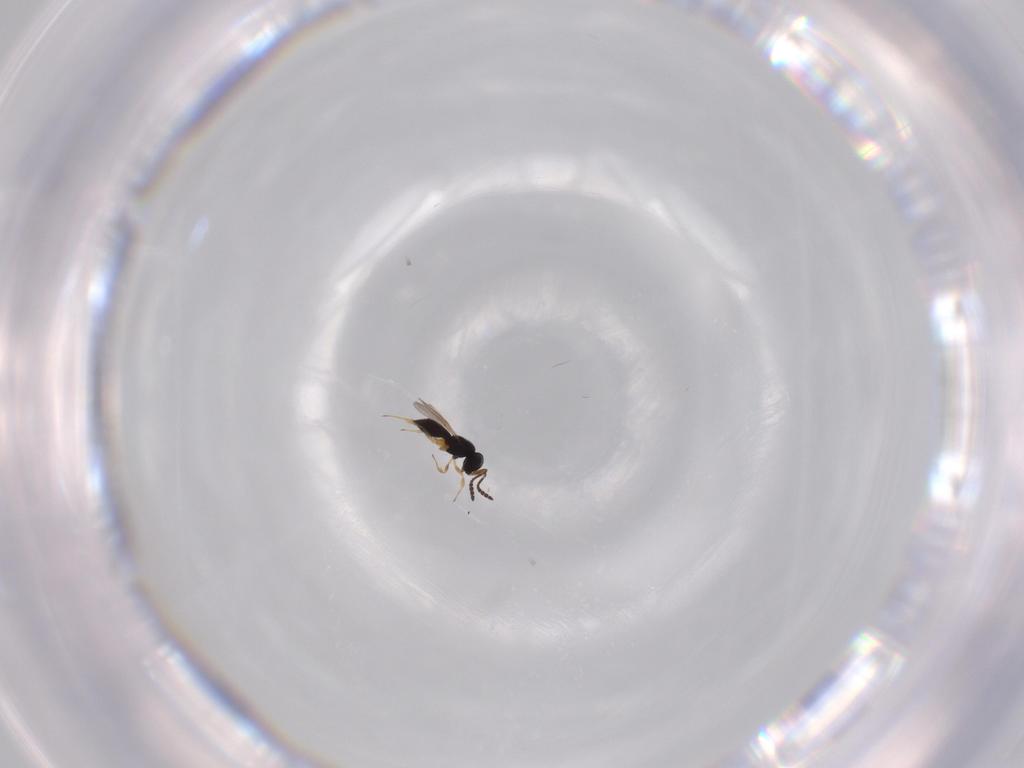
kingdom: Animalia
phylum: Arthropoda
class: Insecta
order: Hymenoptera
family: Scelionidae
